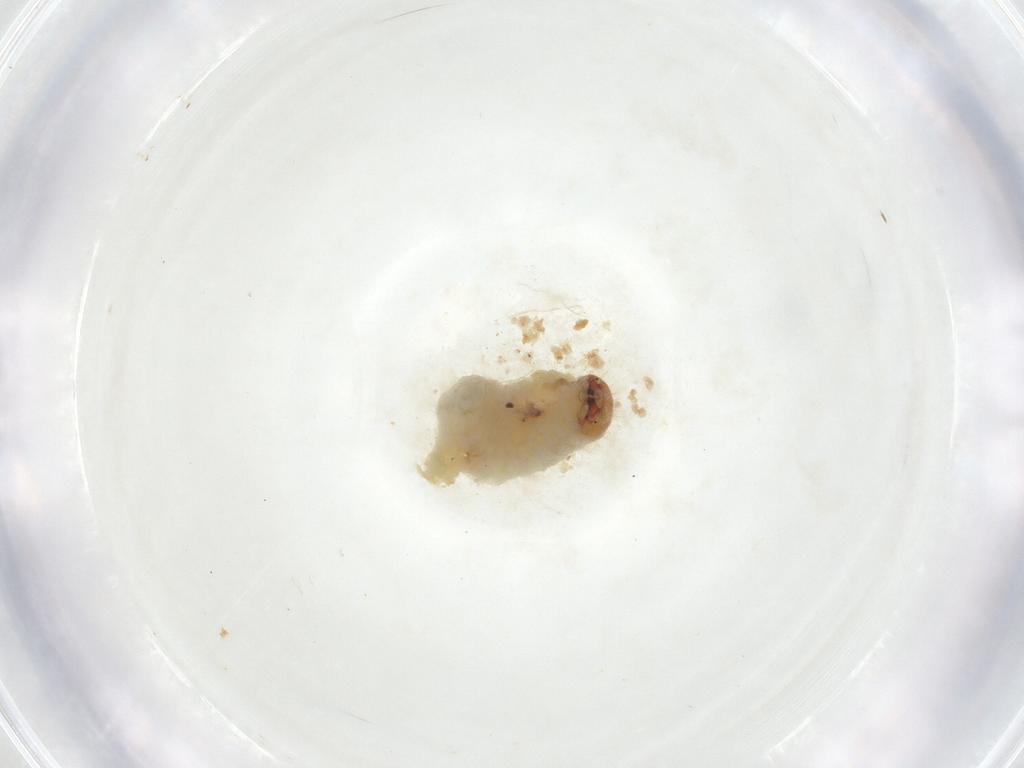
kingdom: Animalia
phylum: Arthropoda
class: Insecta
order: Coleoptera
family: Curculionidae
